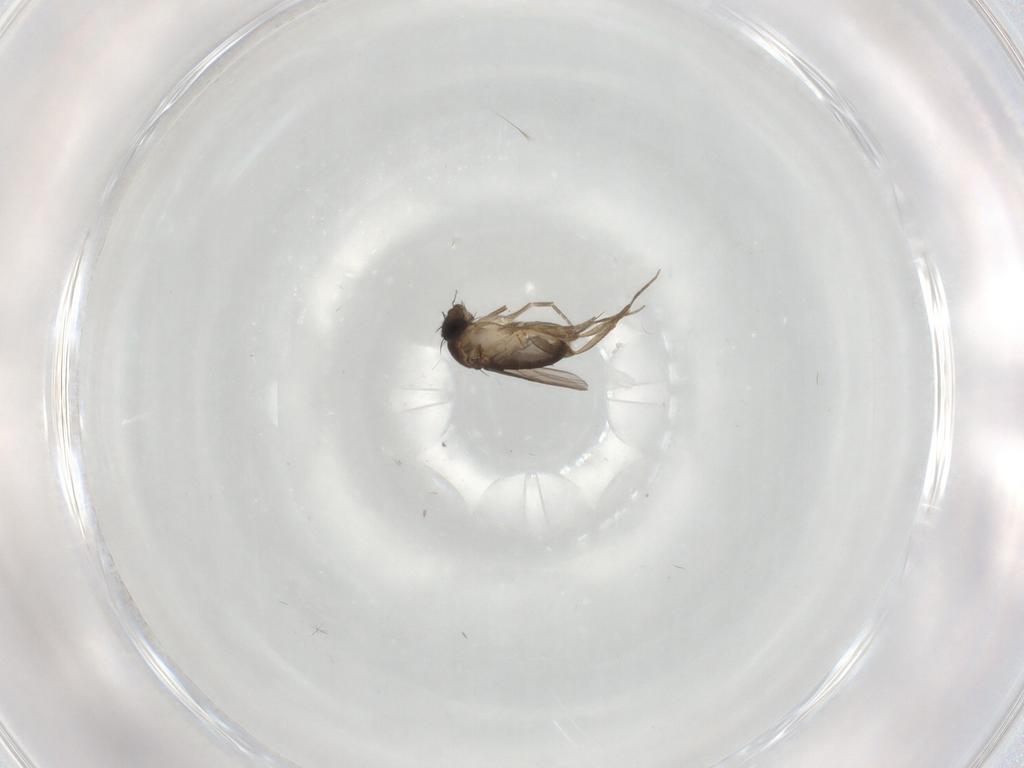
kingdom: Animalia
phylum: Arthropoda
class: Insecta
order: Diptera
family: Phoridae
